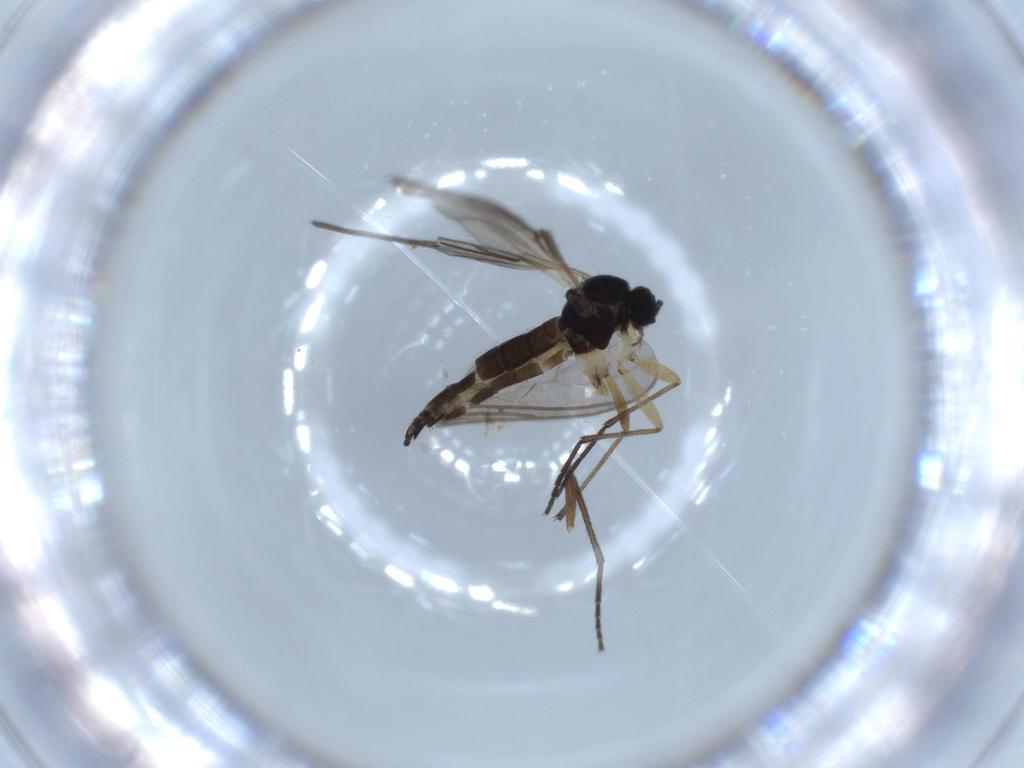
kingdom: Animalia
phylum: Arthropoda
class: Insecta
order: Diptera
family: Sciaridae
